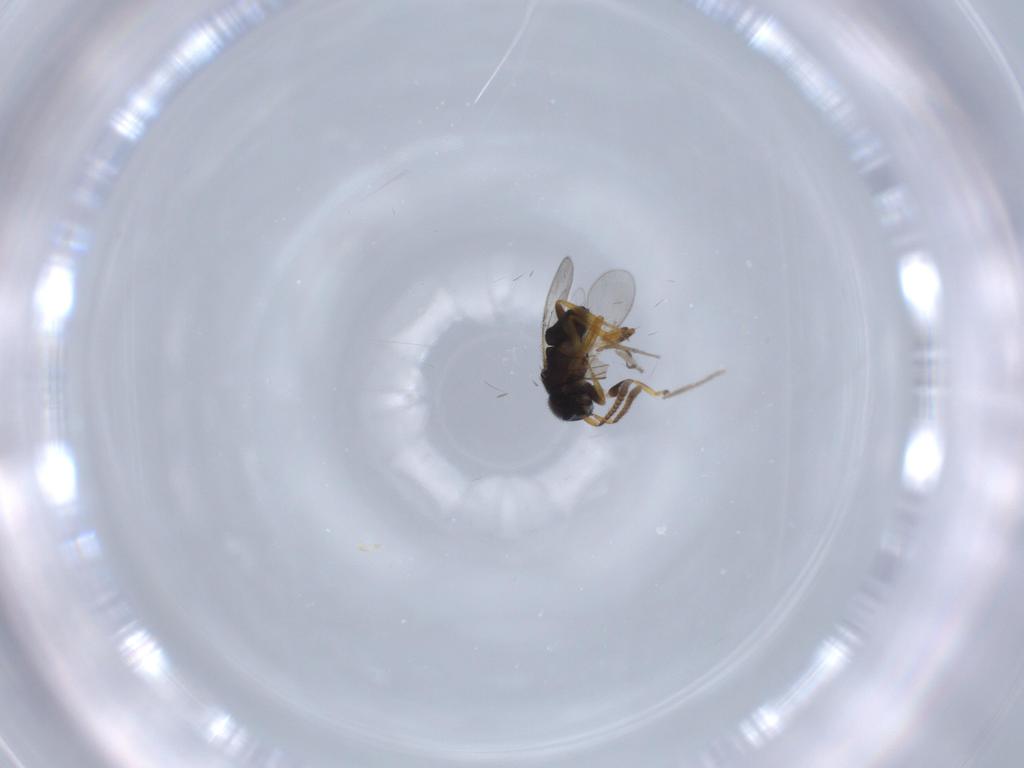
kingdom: Animalia
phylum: Arthropoda
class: Insecta
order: Diptera
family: Chironomidae
